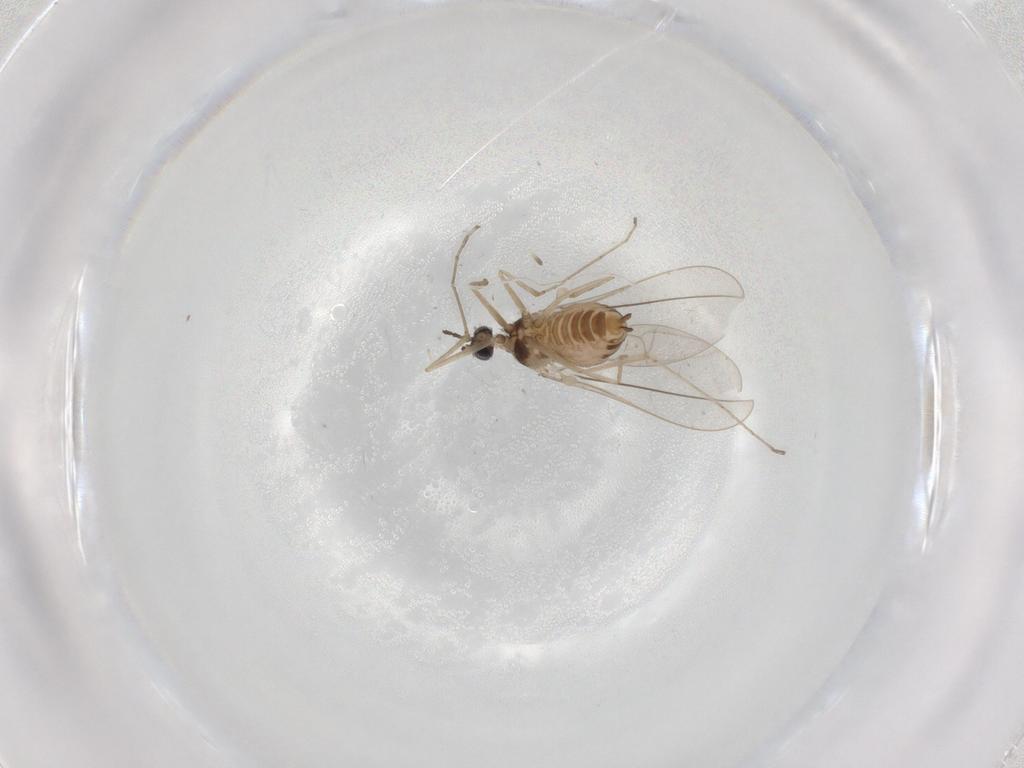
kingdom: Animalia
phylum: Arthropoda
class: Insecta
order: Diptera
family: Cecidomyiidae
